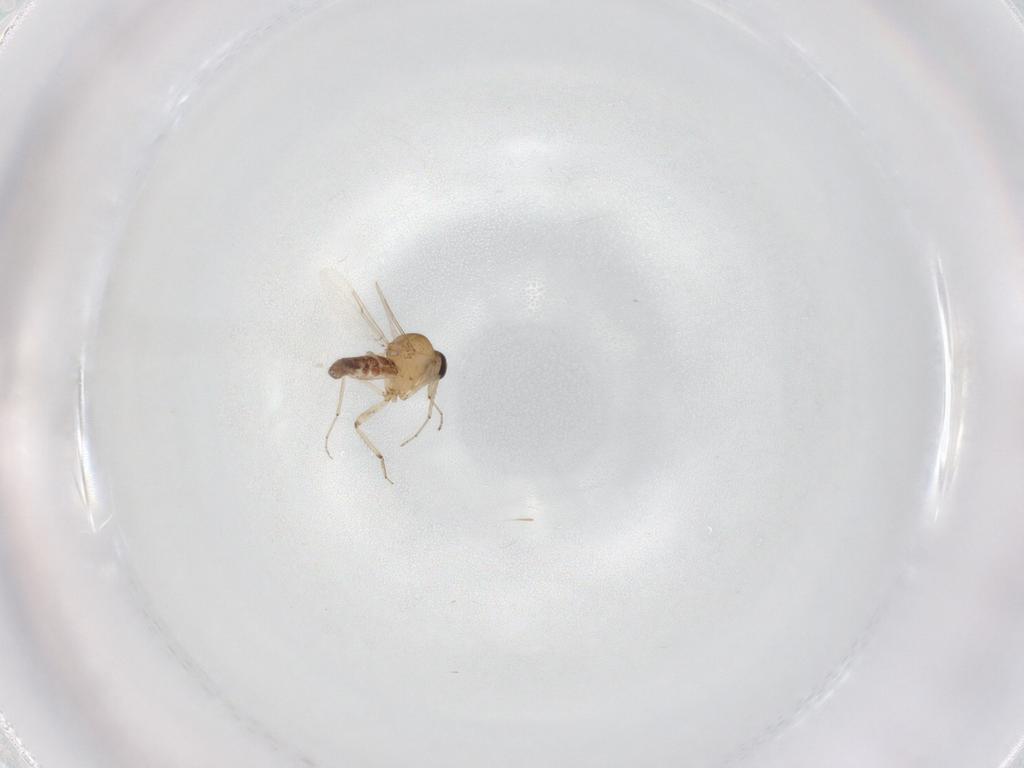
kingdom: Animalia
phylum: Arthropoda
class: Insecta
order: Diptera
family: Ceratopogonidae
